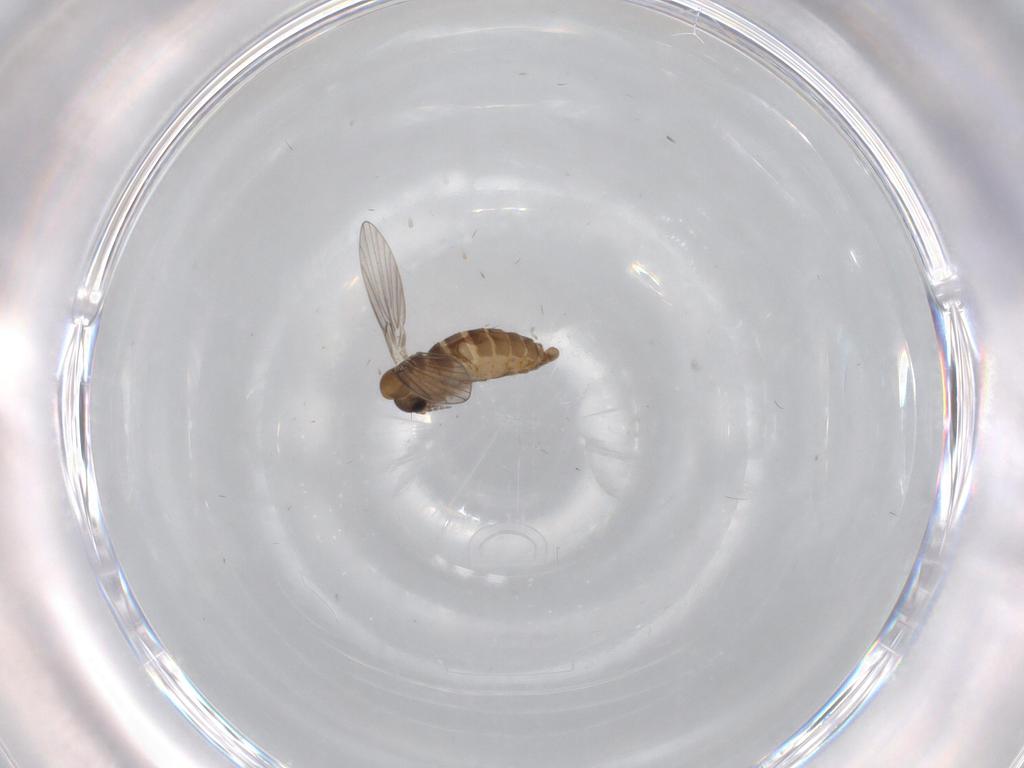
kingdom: Animalia
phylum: Arthropoda
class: Insecta
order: Diptera
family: Psychodidae
